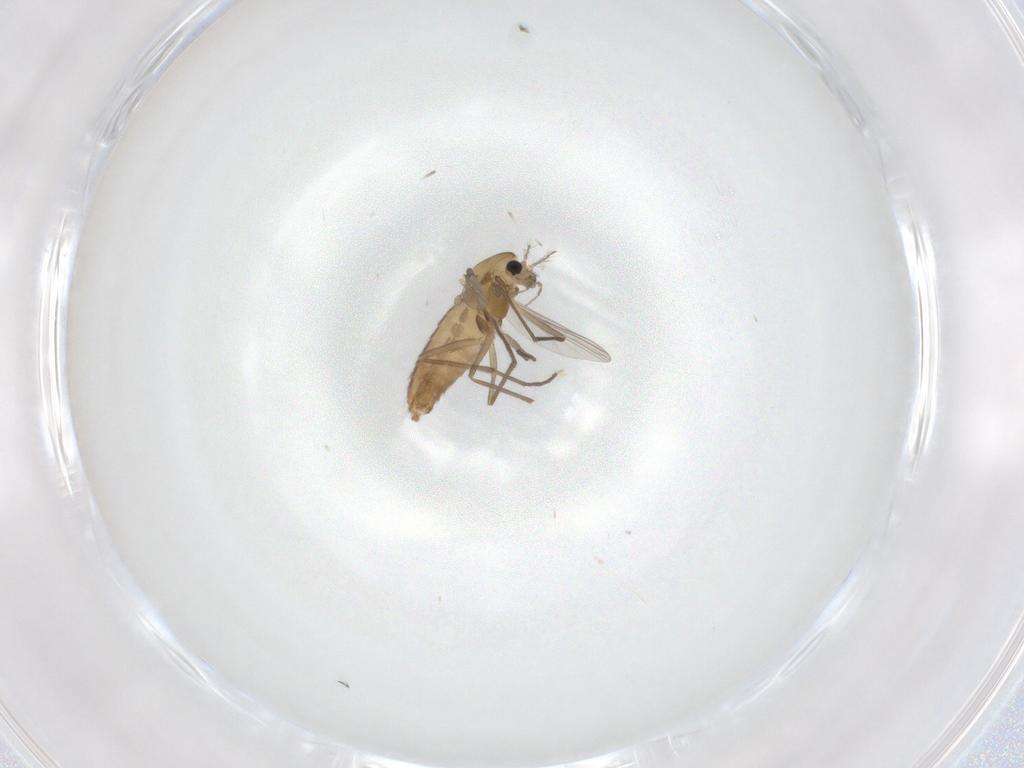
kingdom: Animalia
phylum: Arthropoda
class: Insecta
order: Diptera
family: Chironomidae
